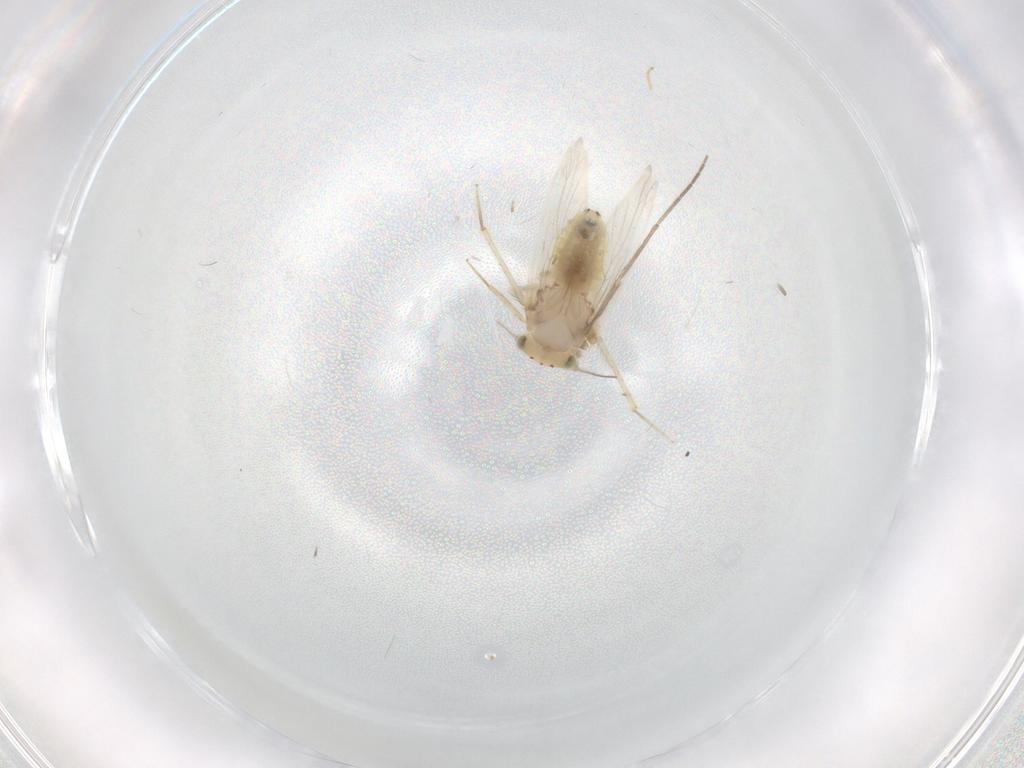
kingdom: Animalia
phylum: Arthropoda
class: Insecta
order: Psocodea
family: Lepidopsocidae
